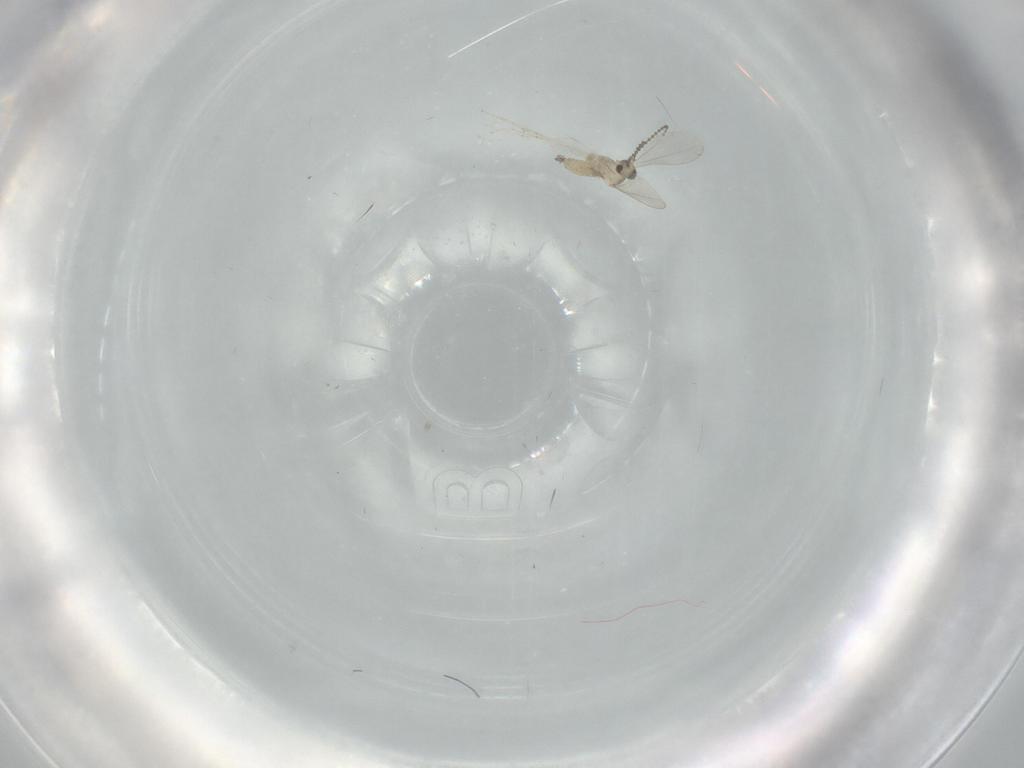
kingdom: Animalia
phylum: Arthropoda
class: Insecta
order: Diptera
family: Cecidomyiidae
